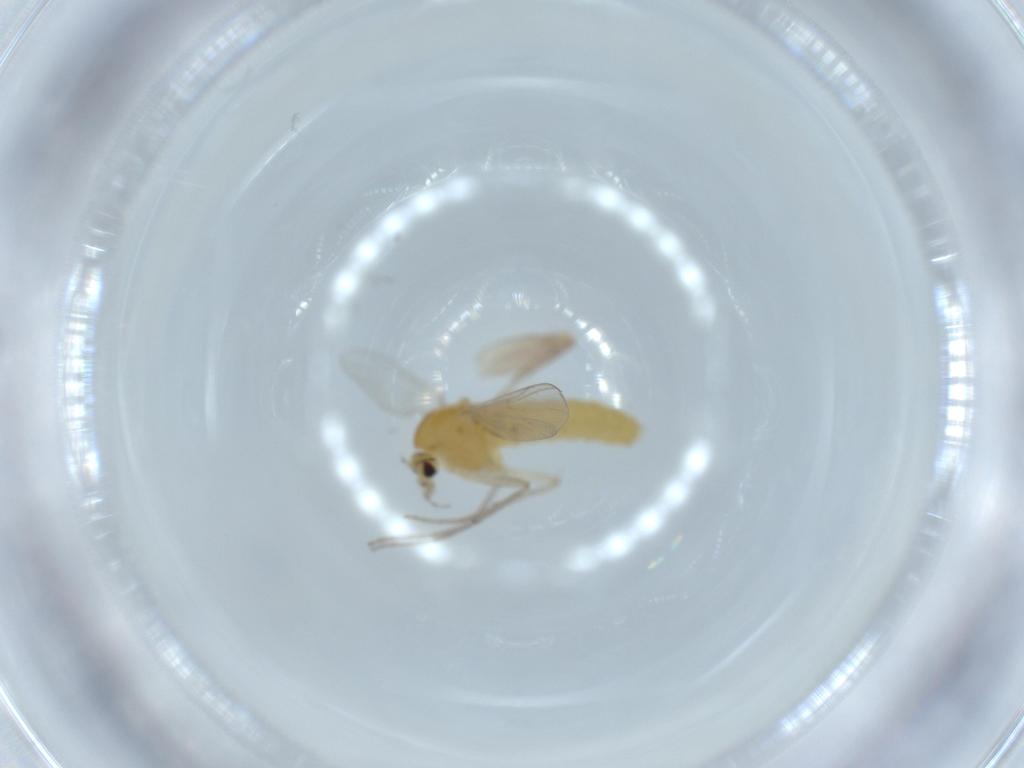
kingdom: Animalia
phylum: Arthropoda
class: Insecta
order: Diptera
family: Chironomidae
